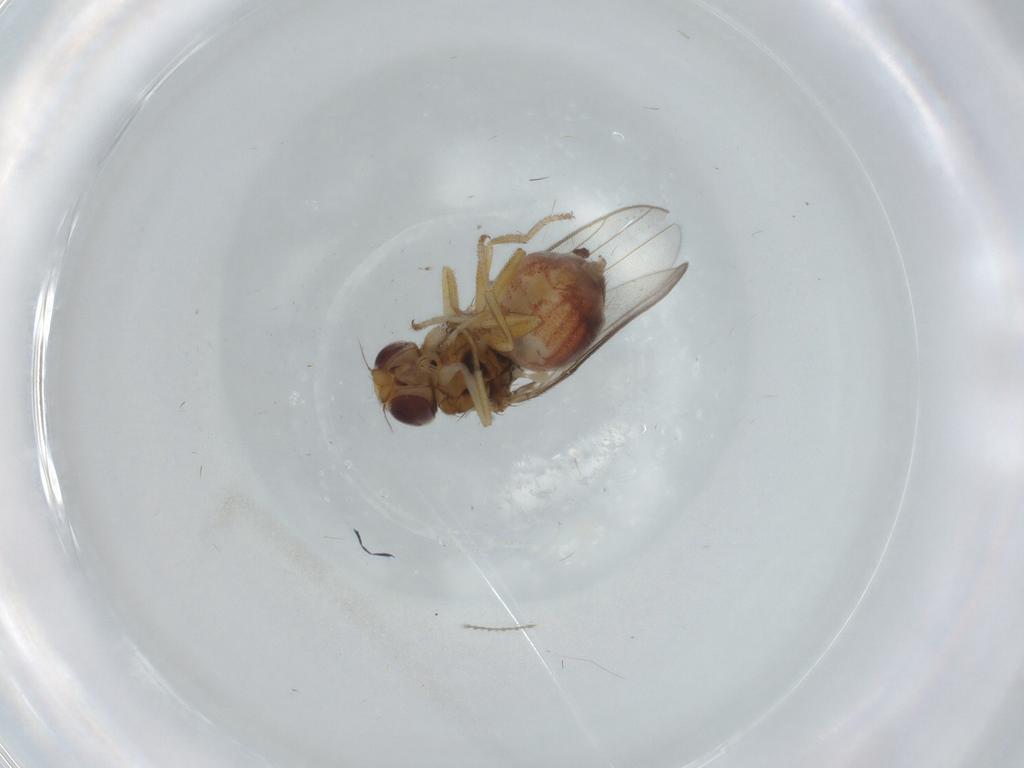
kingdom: Animalia
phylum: Arthropoda
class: Insecta
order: Diptera
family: Chloropidae
